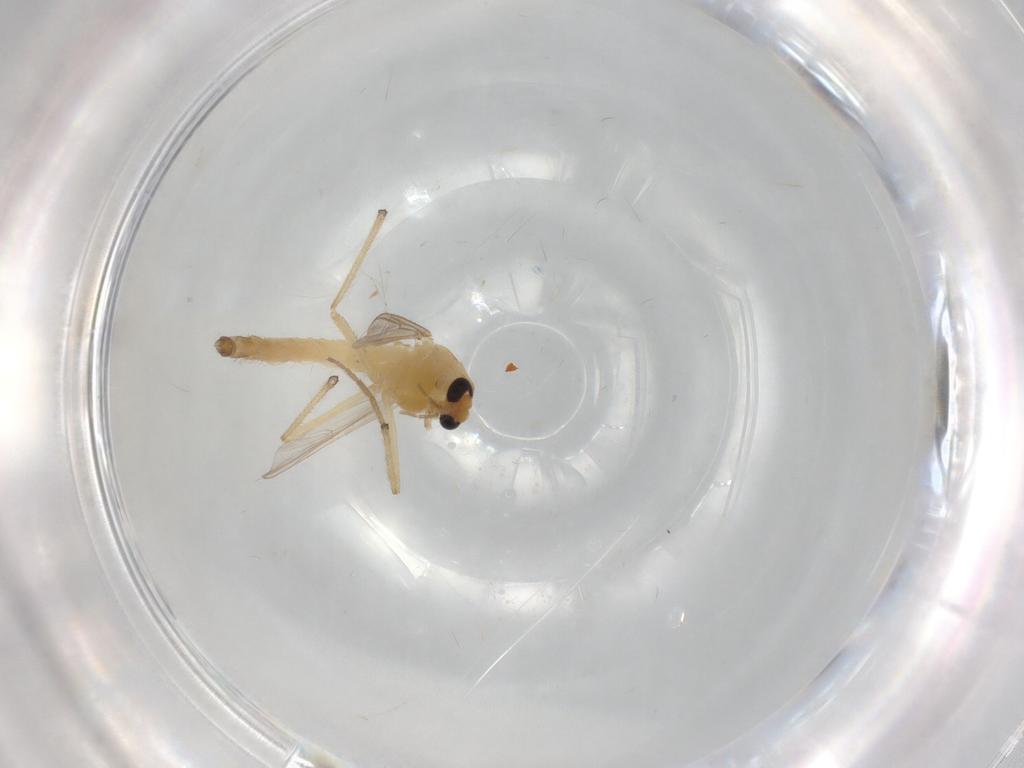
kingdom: Animalia
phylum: Arthropoda
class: Insecta
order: Diptera
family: Chironomidae
